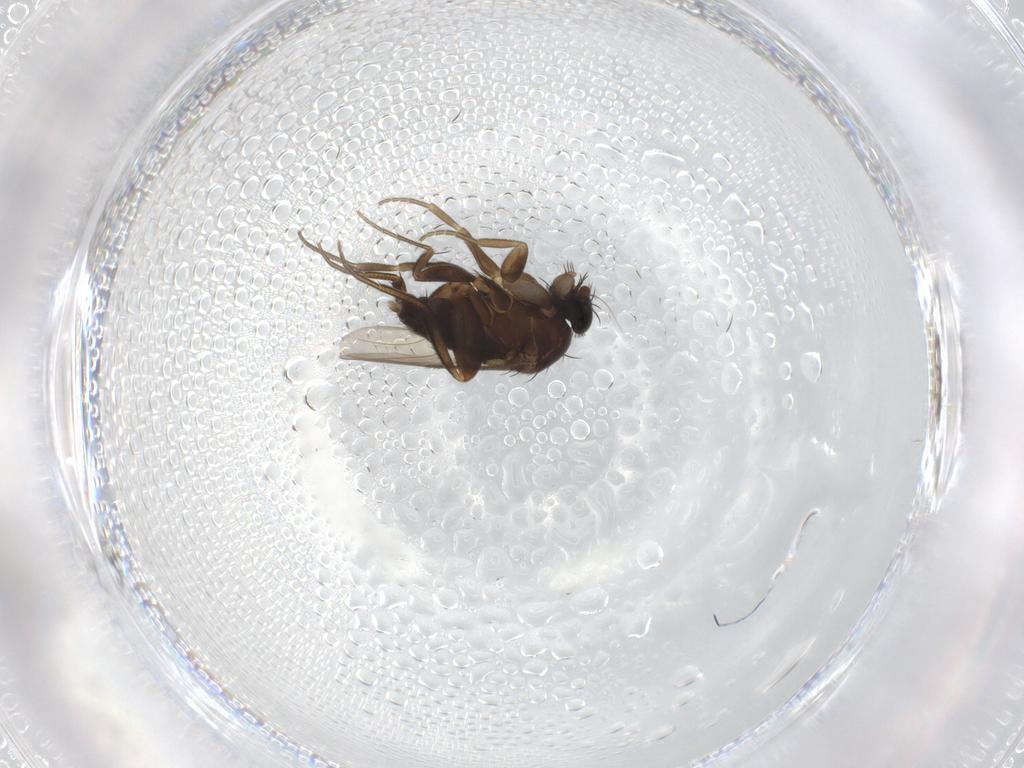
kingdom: Animalia
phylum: Arthropoda
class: Insecta
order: Diptera
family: Phoridae
